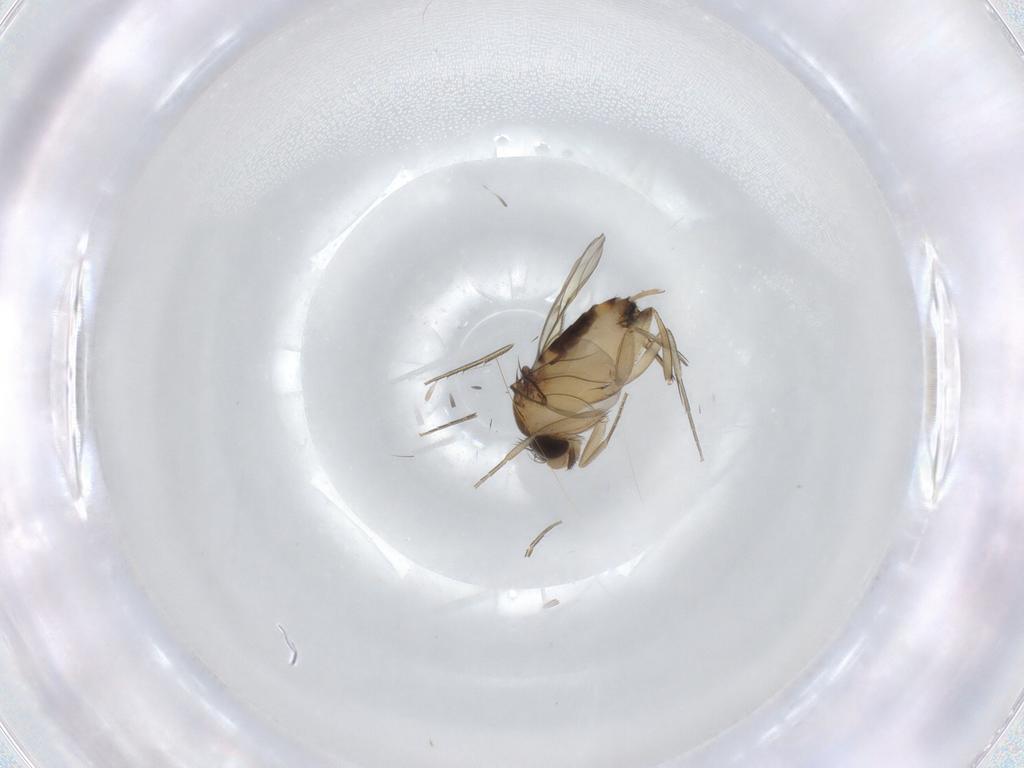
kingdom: Animalia
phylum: Arthropoda
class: Insecta
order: Diptera
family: Phoridae
